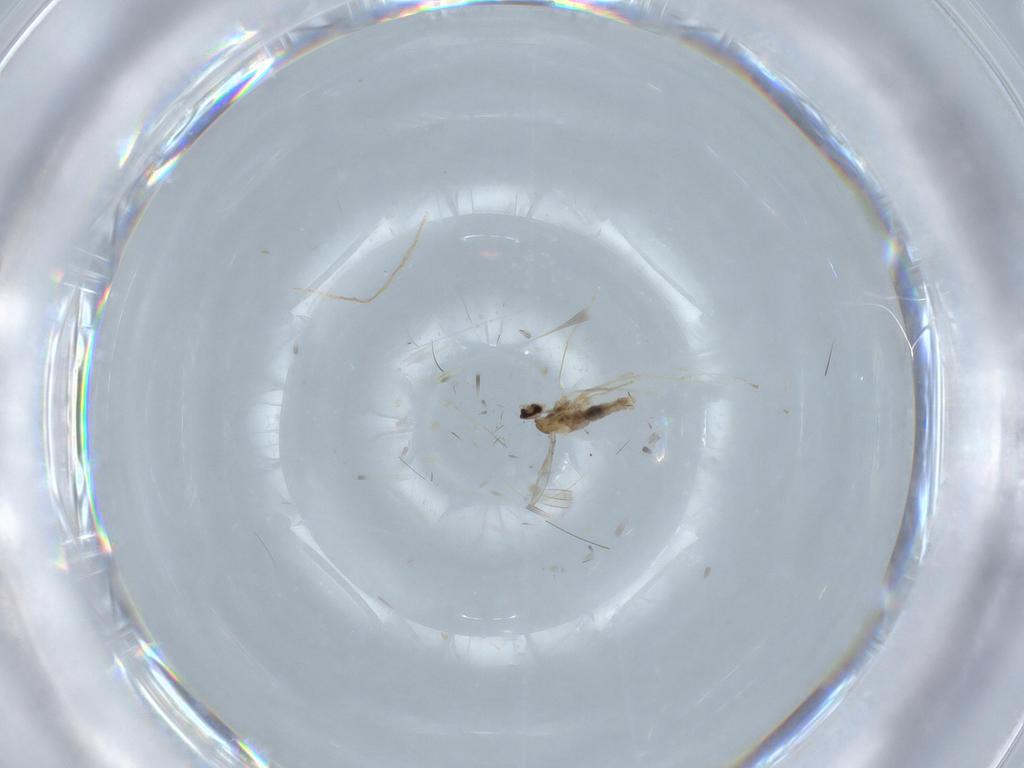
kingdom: Animalia
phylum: Arthropoda
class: Insecta
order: Diptera
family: Cecidomyiidae
